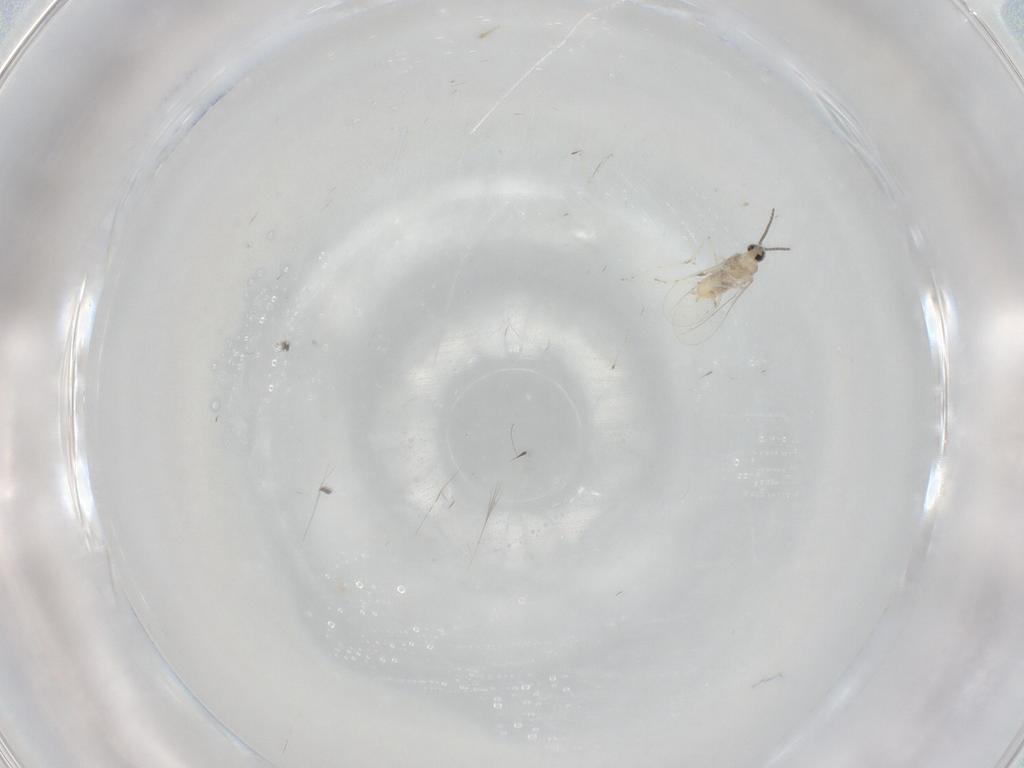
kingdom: Animalia
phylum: Arthropoda
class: Insecta
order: Diptera
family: Cecidomyiidae
